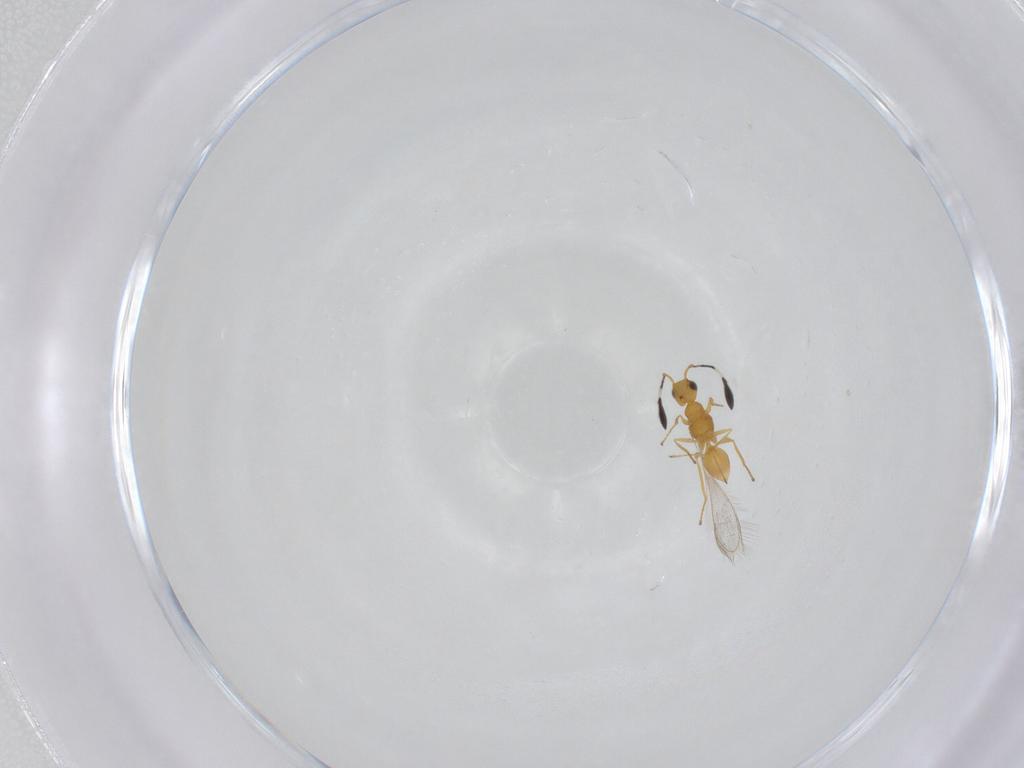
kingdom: Animalia
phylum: Arthropoda
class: Insecta
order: Hymenoptera
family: Mymaridae
